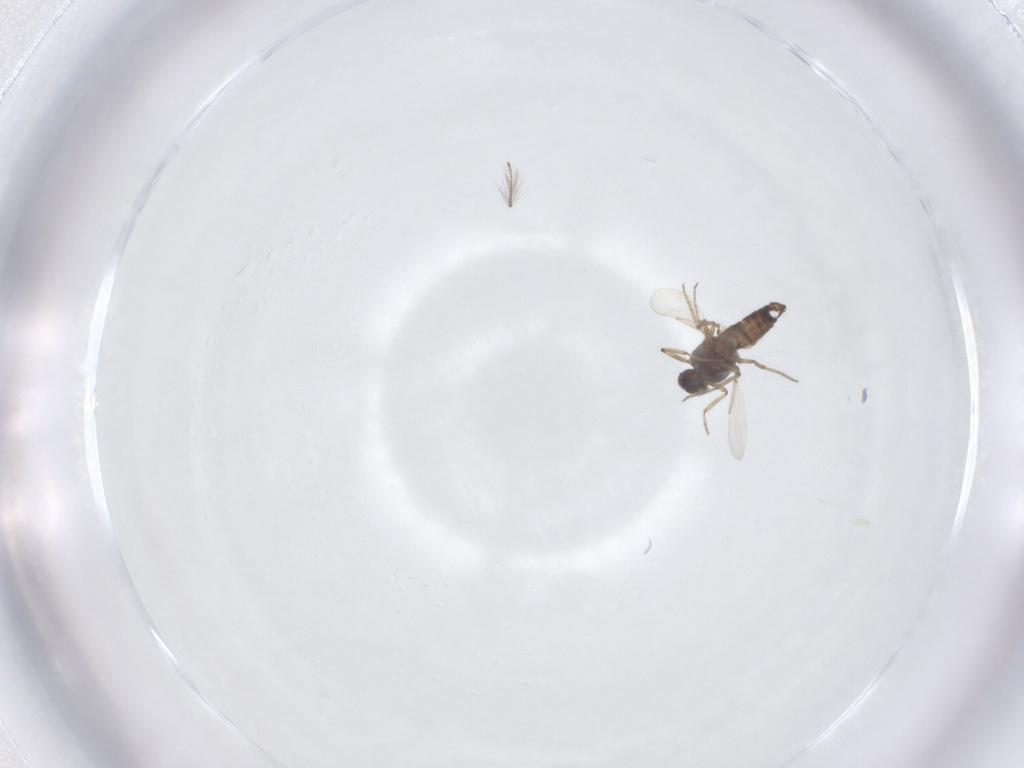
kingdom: Animalia
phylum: Arthropoda
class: Insecta
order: Diptera
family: Ceratopogonidae
